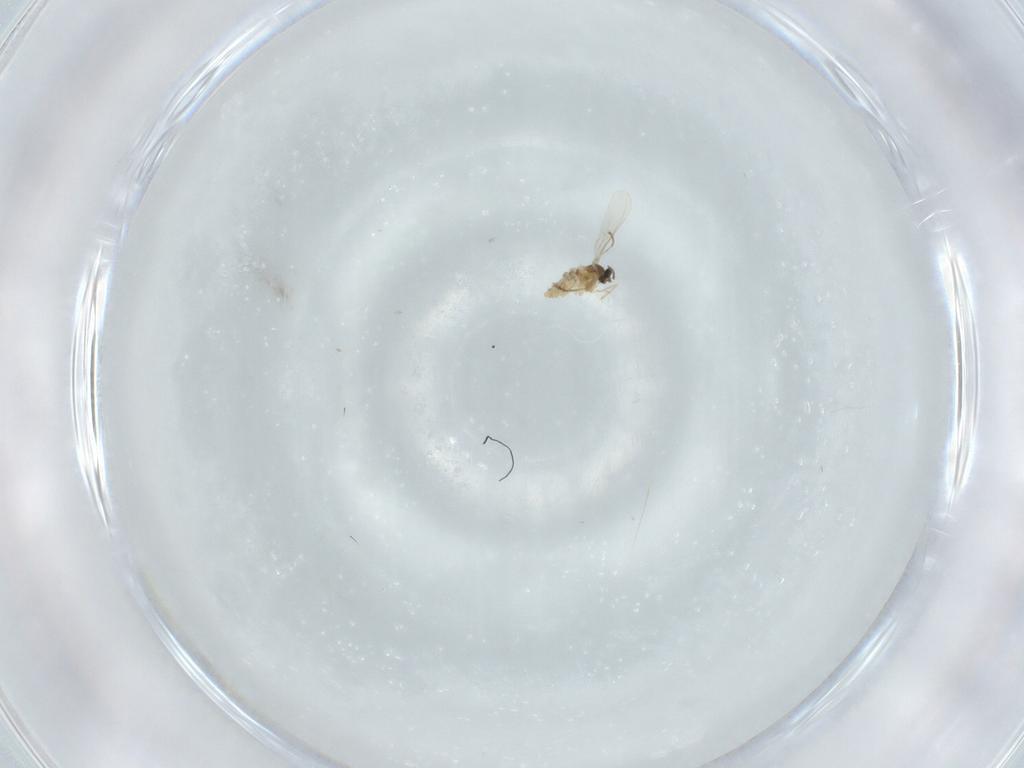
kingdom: Animalia
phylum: Arthropoda
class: Insecta
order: Diptera
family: Cecidomyiidae
